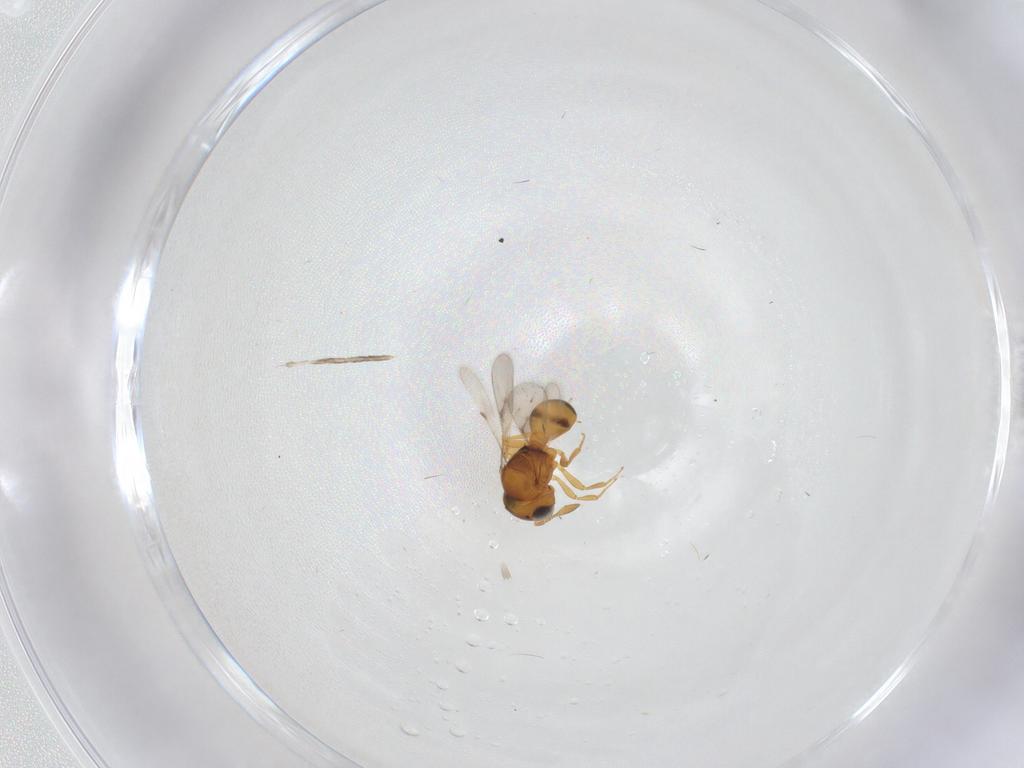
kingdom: Animalia
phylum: Arthropoda
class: Insecta
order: Hymenoptera
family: Scelionidae
